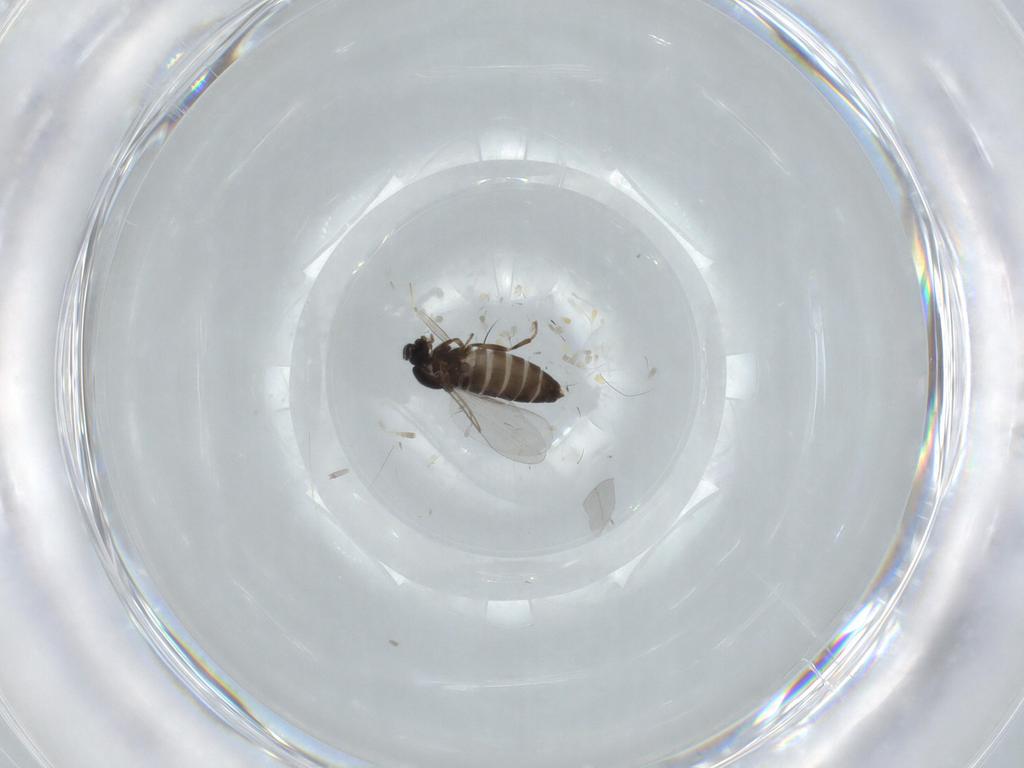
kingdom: Animalia
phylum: Arthropoda
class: Insecta
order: Diptera
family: Scatopsidae
